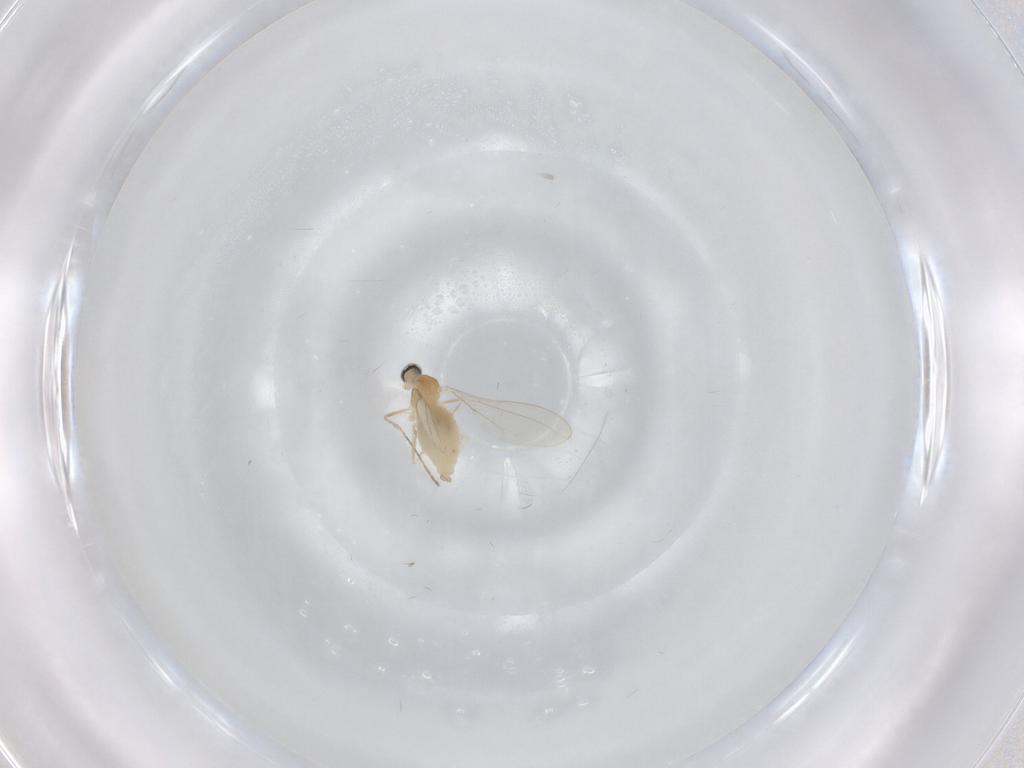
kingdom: Animalia
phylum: Arthropoda
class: Insecta
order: Diptera
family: Cecidomyiidae
